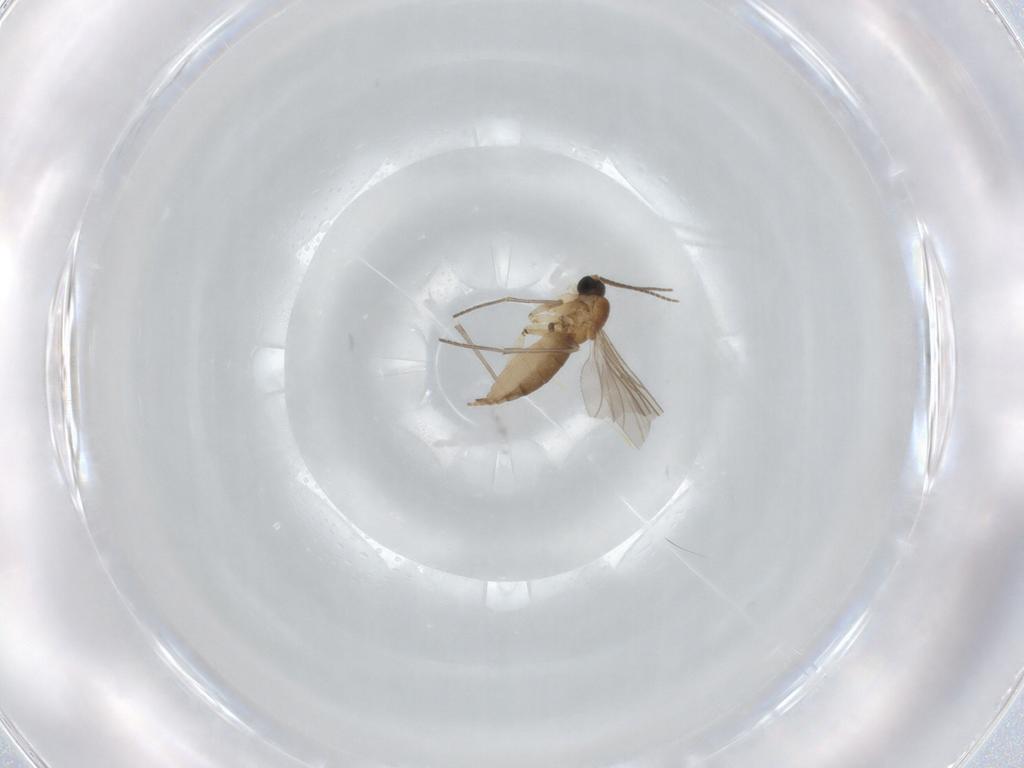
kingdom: Animalia
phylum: Arthropoda
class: Insecta
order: Diptera
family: Sciaridae
